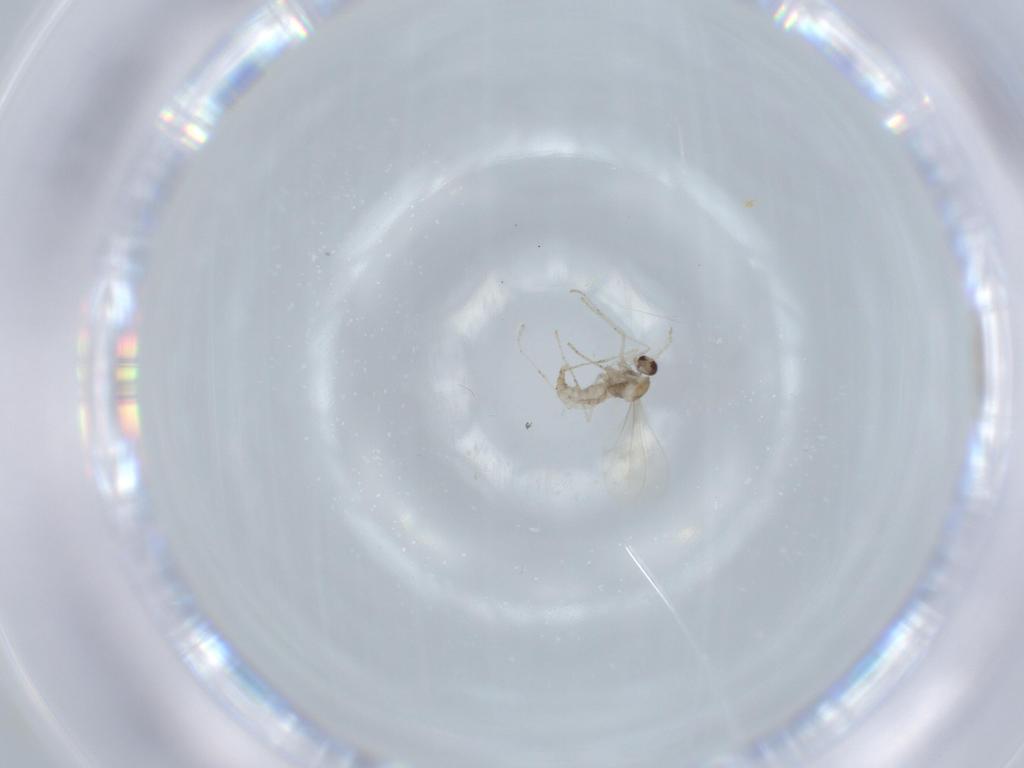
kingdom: Animalia
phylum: Arthropoda
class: Insecta
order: Diptera
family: Cecidomyiidae
